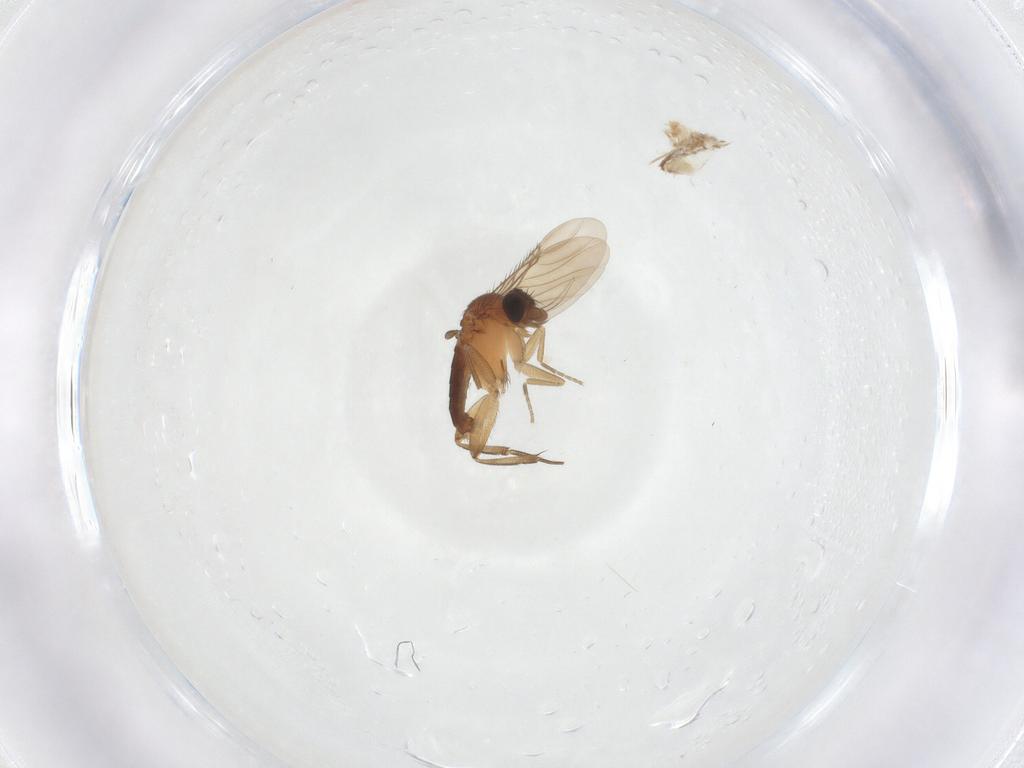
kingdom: Animalia
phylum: Arthropoda
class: Insecta
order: Diptera
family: Phoridae
